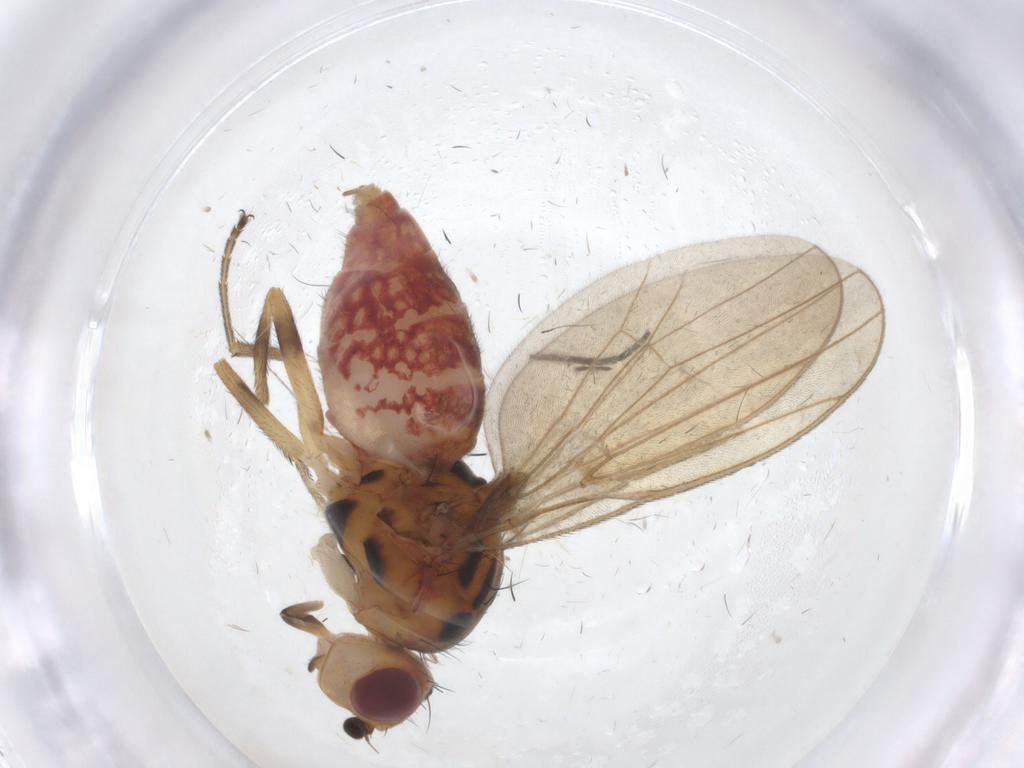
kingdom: Animalia
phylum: Arthropoda
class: Insecta
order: Diptera
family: Chloropidae
